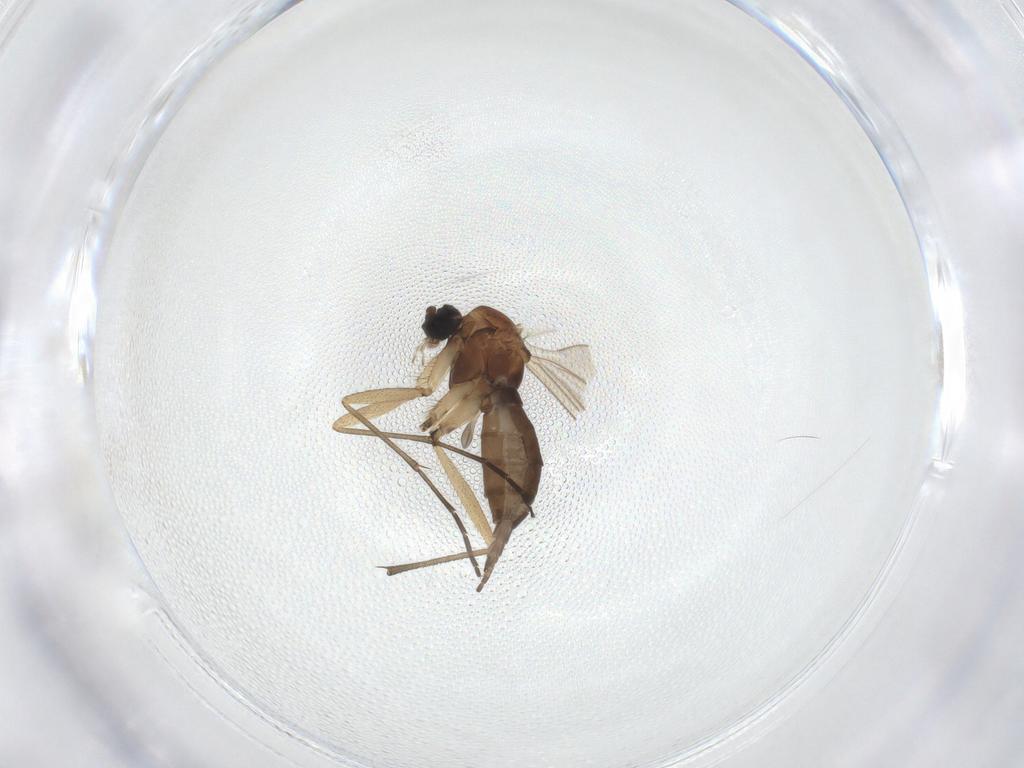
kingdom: Animalia
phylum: Arthropoda
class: Insecta
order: Diptera
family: Sciaridae
